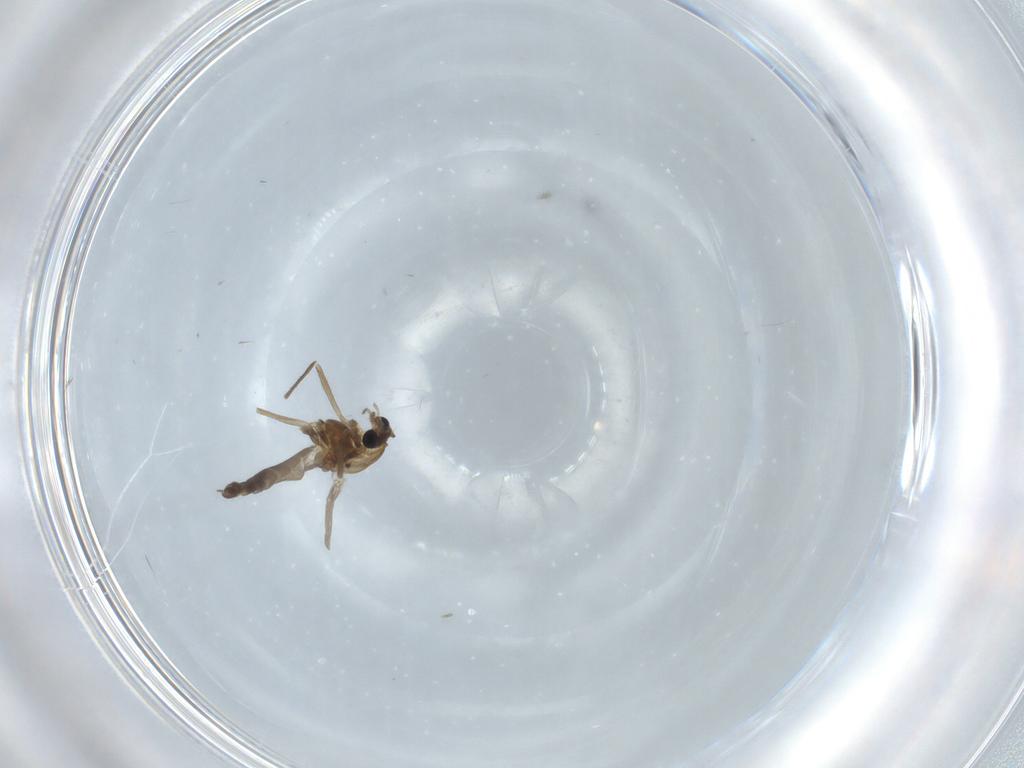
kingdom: Animalia
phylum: Arthropoda
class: Insecta
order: Diptera
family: Chironomidae
